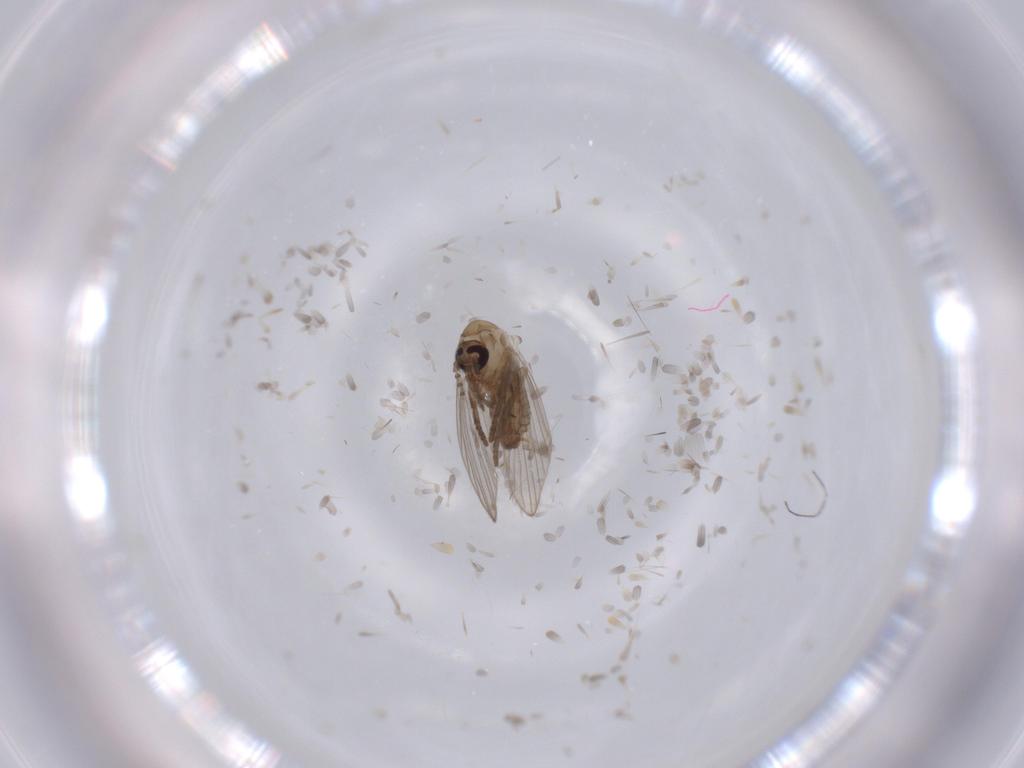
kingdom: Animalia
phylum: Arthropoda
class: Insecta
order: Diptera
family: Psychodidae
